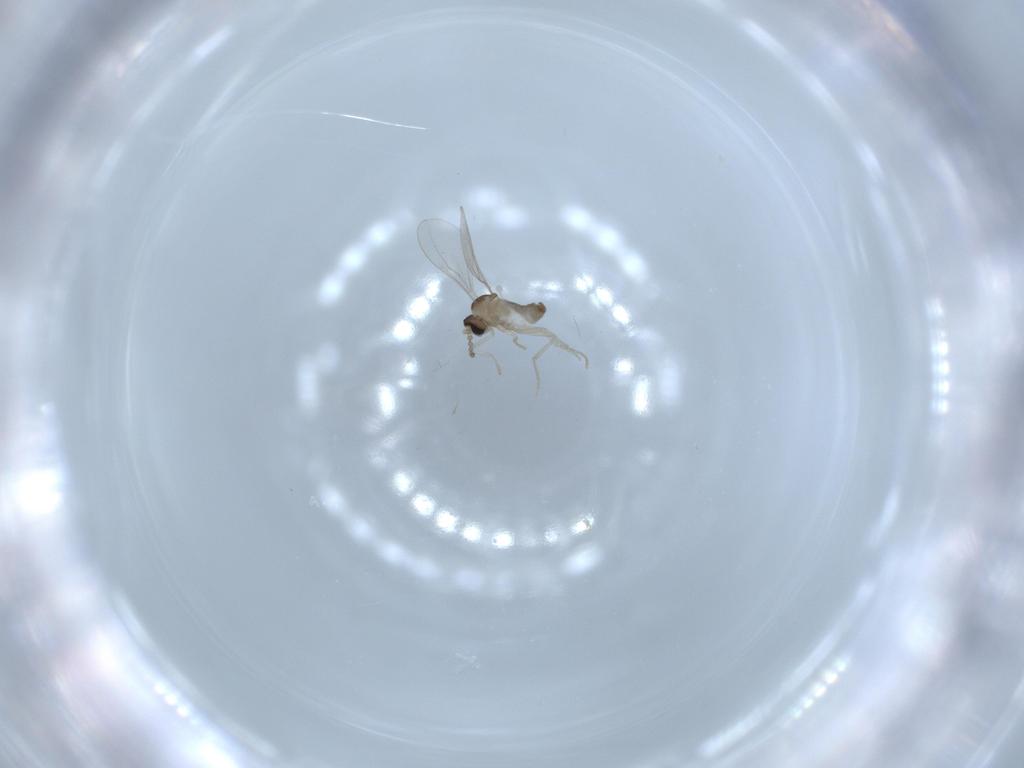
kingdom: Animalia
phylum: Arthropoda
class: Insecta
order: Diptera
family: Cecidomyiidae
